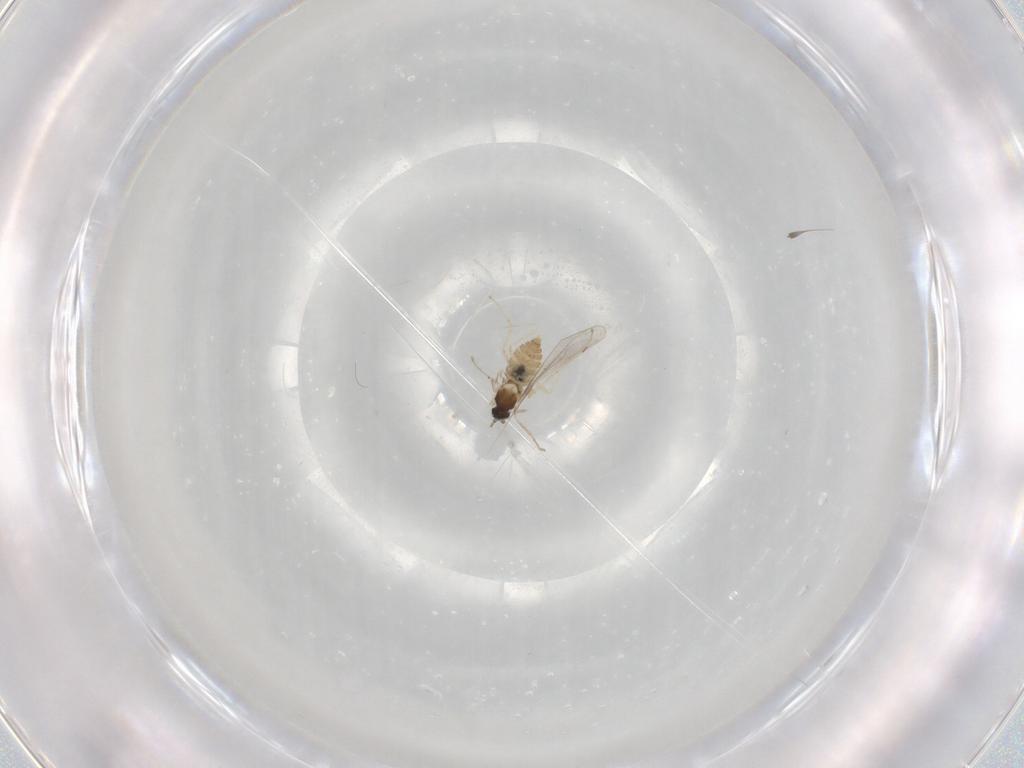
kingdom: Animalia
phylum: Arthropoda
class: Insecta
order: Diptera
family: Cecidomyiidae
